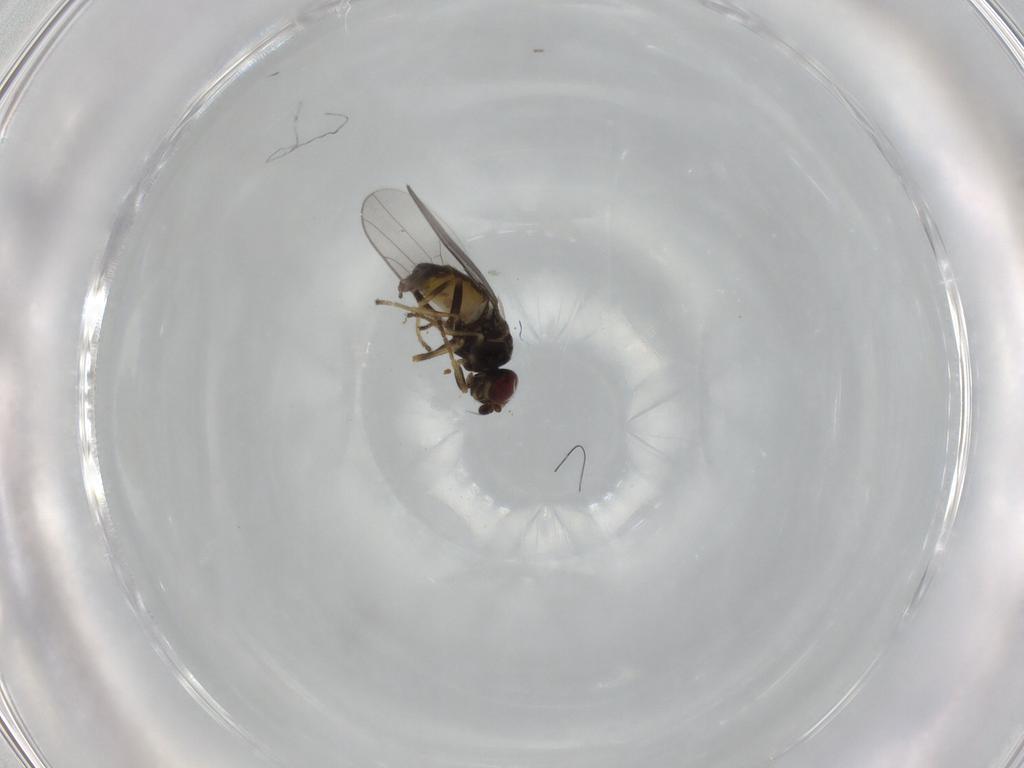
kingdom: Animalia
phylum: Arthropoda
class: Insecta
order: Diptera
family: Chloropidae
